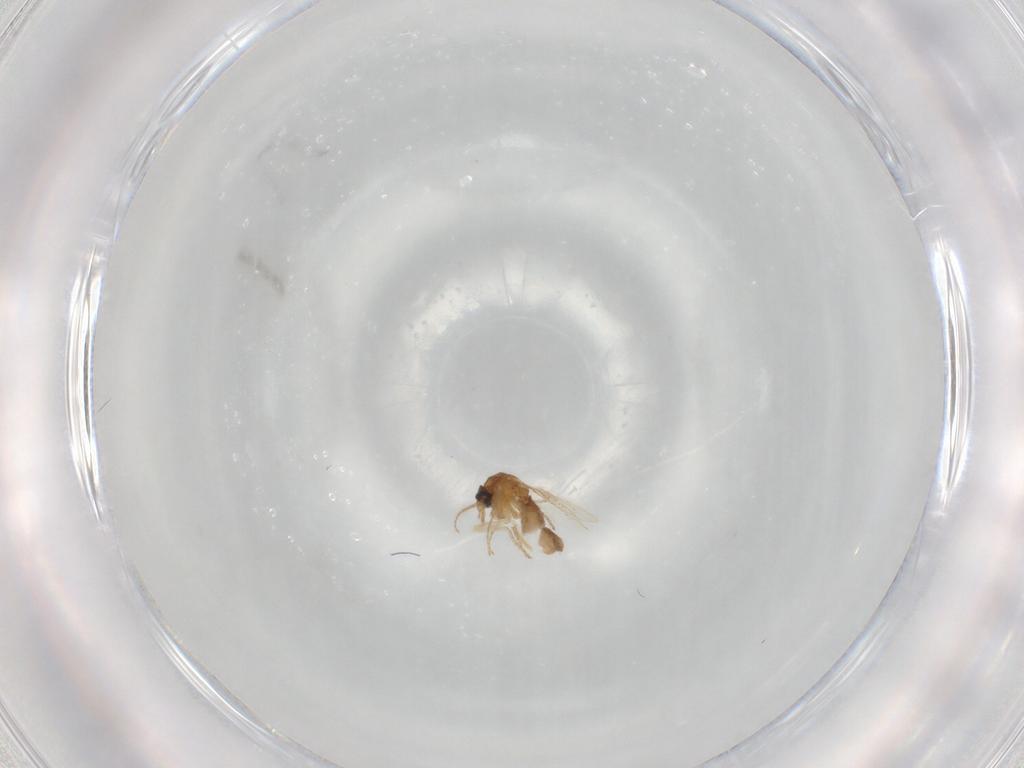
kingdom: Animalia
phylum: Arthropoda
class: Insecta
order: Diptera
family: Ceratopogonidae
